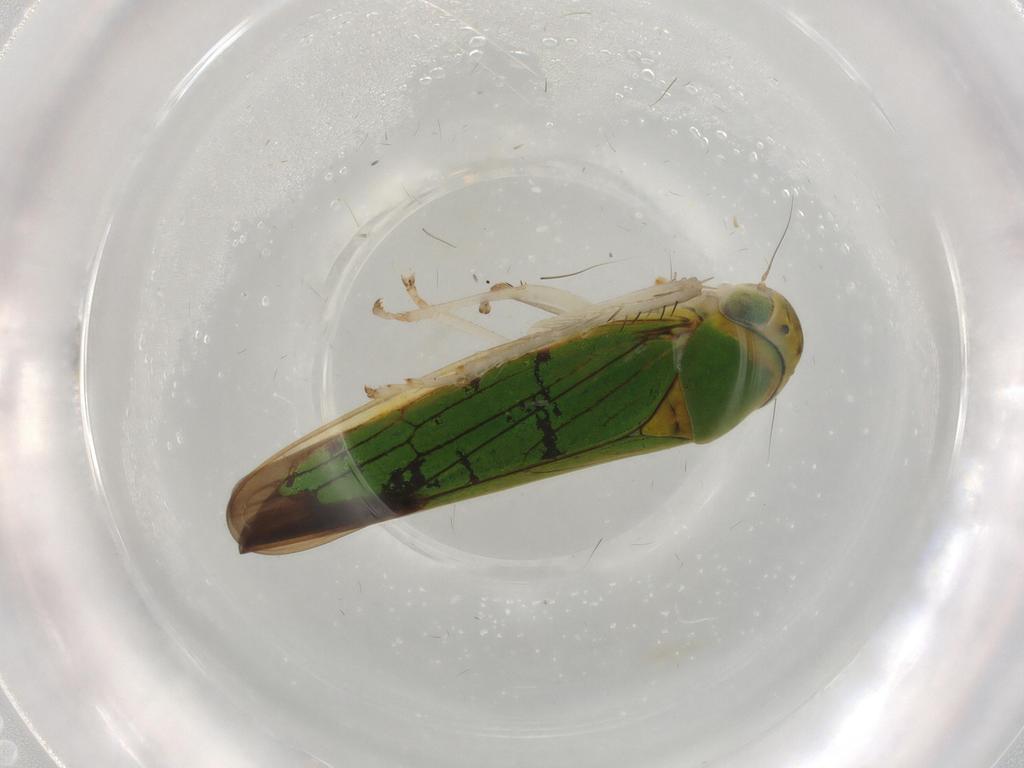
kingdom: Animalia
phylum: Arthropoda
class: Insecta
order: Hemiptera
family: Cicadellidae
